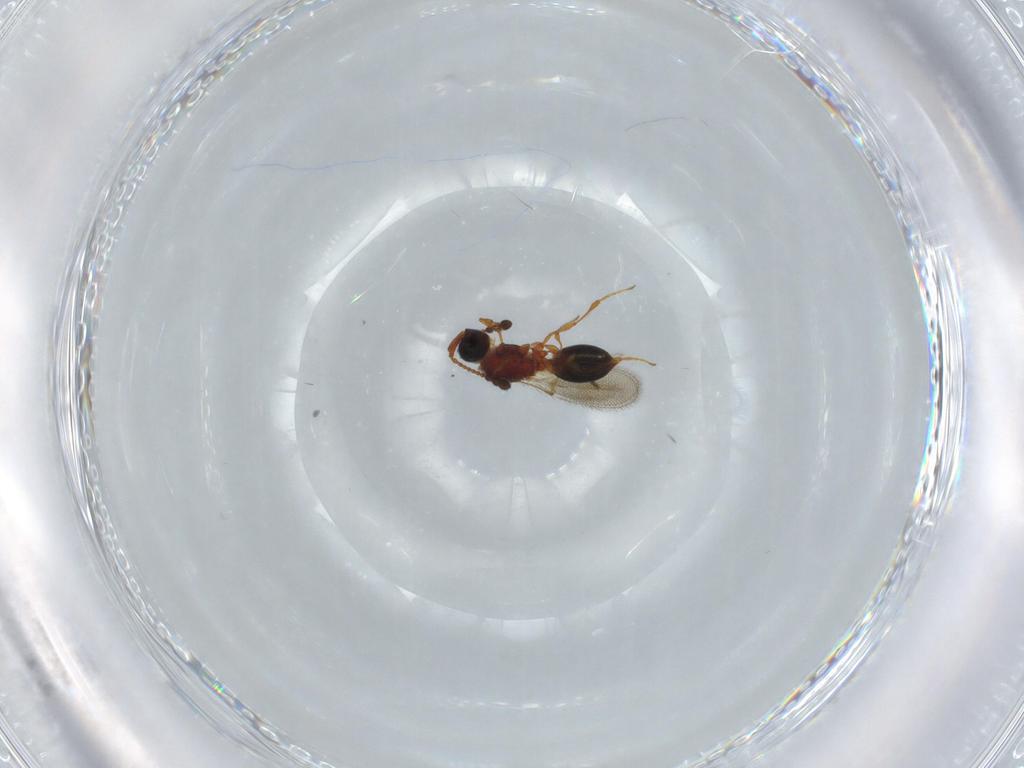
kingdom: Animalia
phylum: Arthropoda
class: Insecta
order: Hymenoptera
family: Diapriidae
